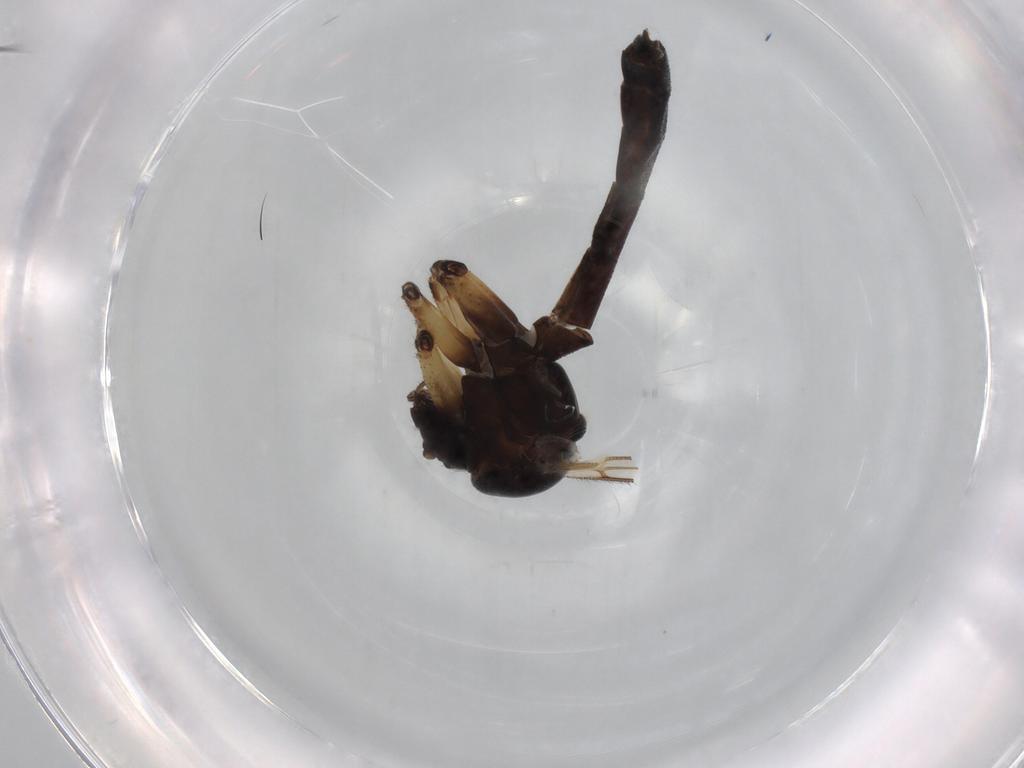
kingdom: Animalia
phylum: Arthropoda
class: Insecta
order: Diptera
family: Mycetophilidae
